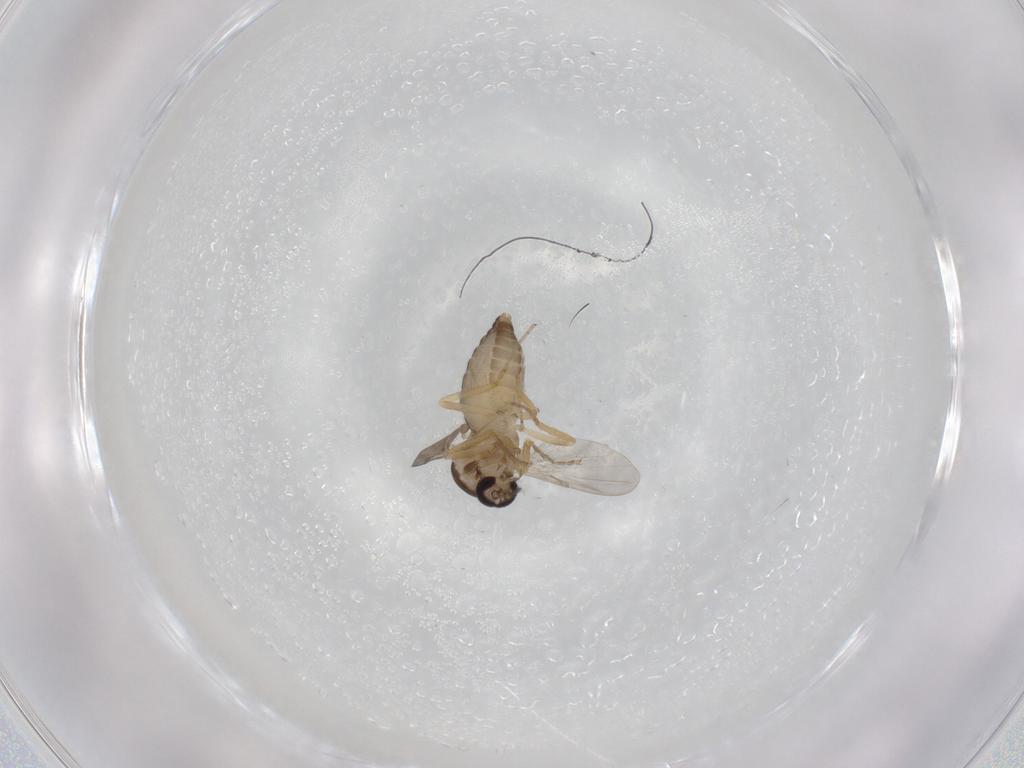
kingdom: Animalia
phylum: Arthropoda
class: Insecta
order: Diptera
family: Ceratopogonidae
